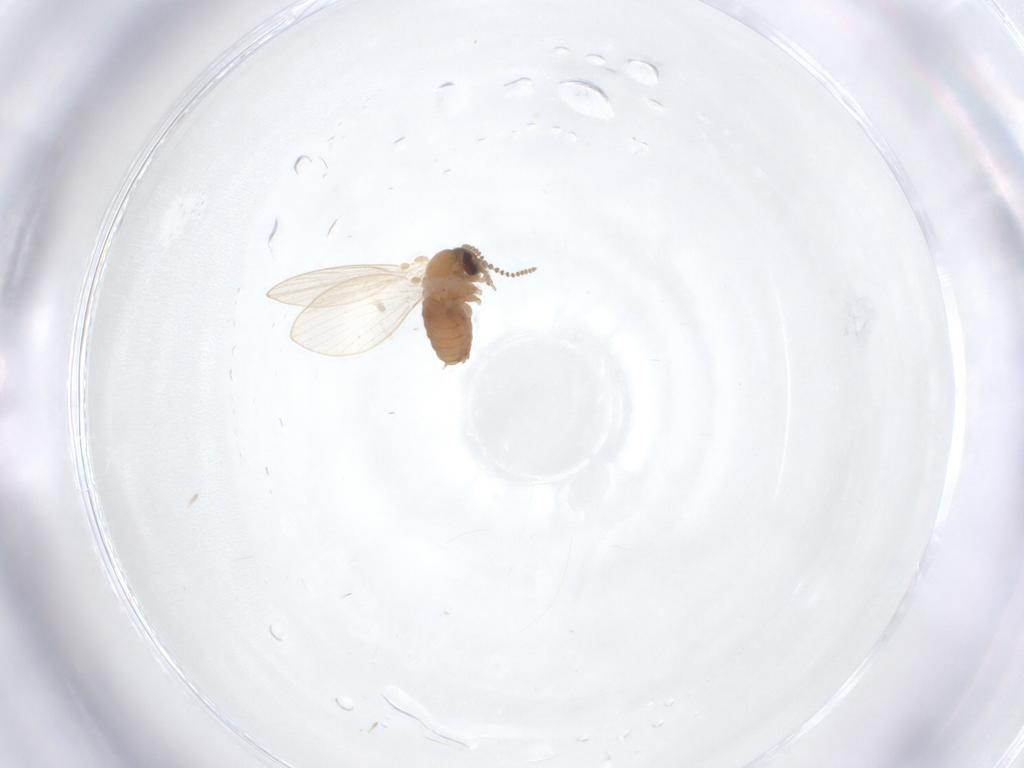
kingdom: Animalia
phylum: Arthropoda
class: Insecta
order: Diptera
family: Psychodidae
